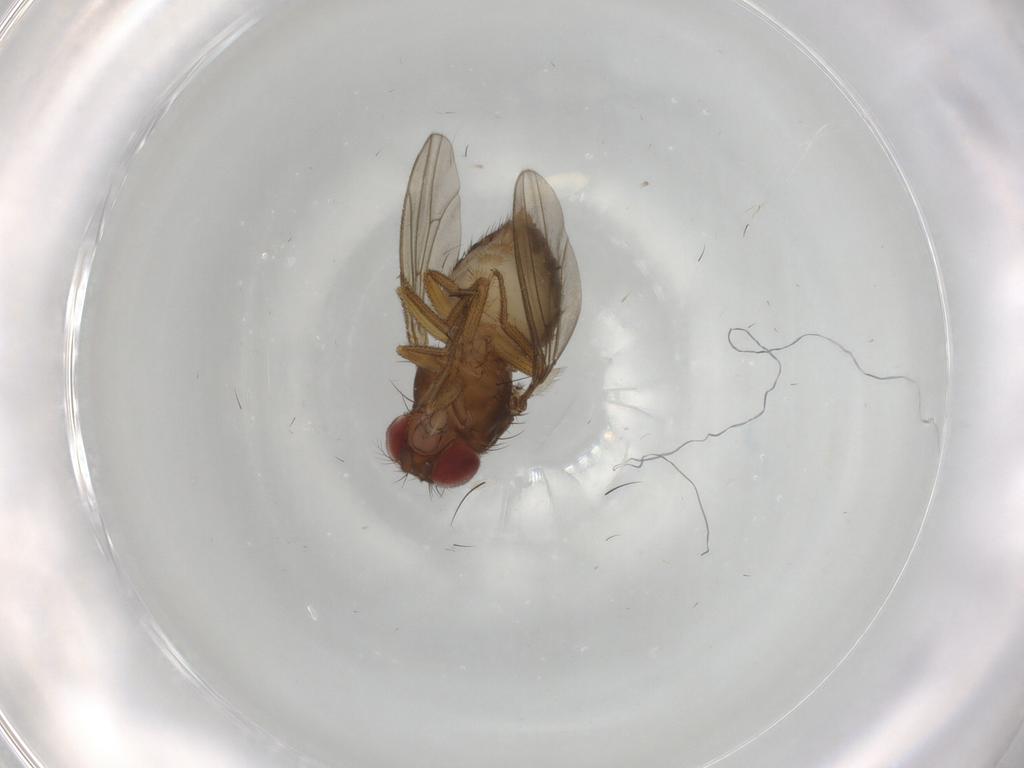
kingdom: Animalia
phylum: Arthropoda
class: Insecta
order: Diptera
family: Ceratopogonidae
